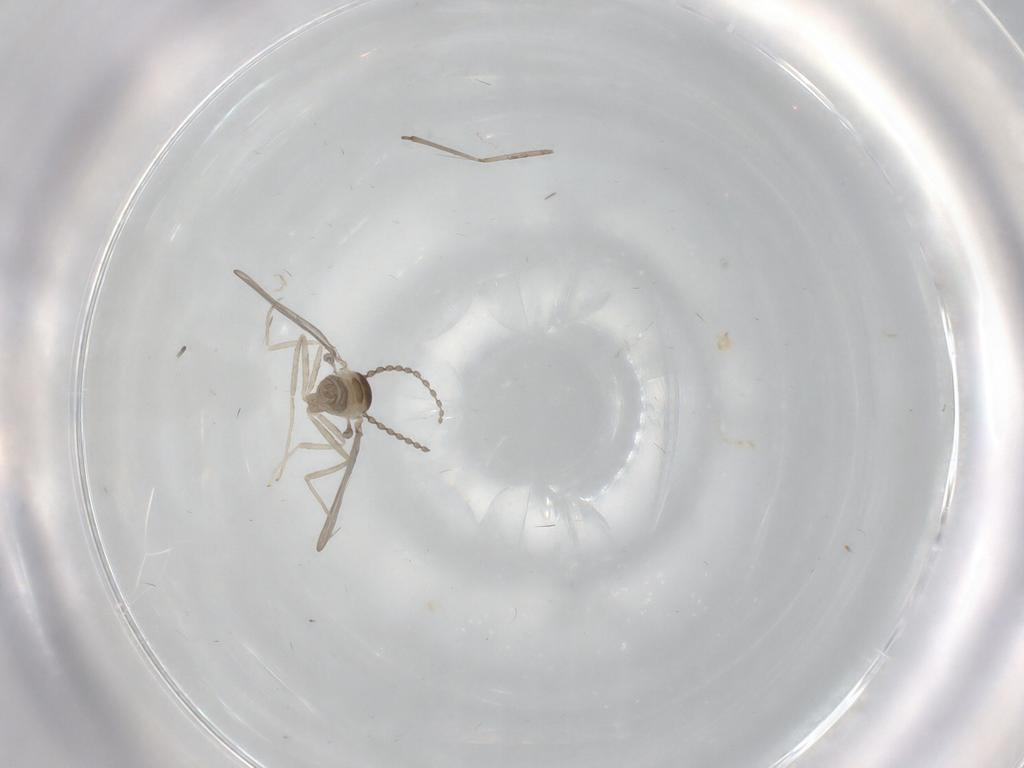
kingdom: Animalia
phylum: Arthropoda
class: Insecta
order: Diptera
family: Cecidomyiidae
